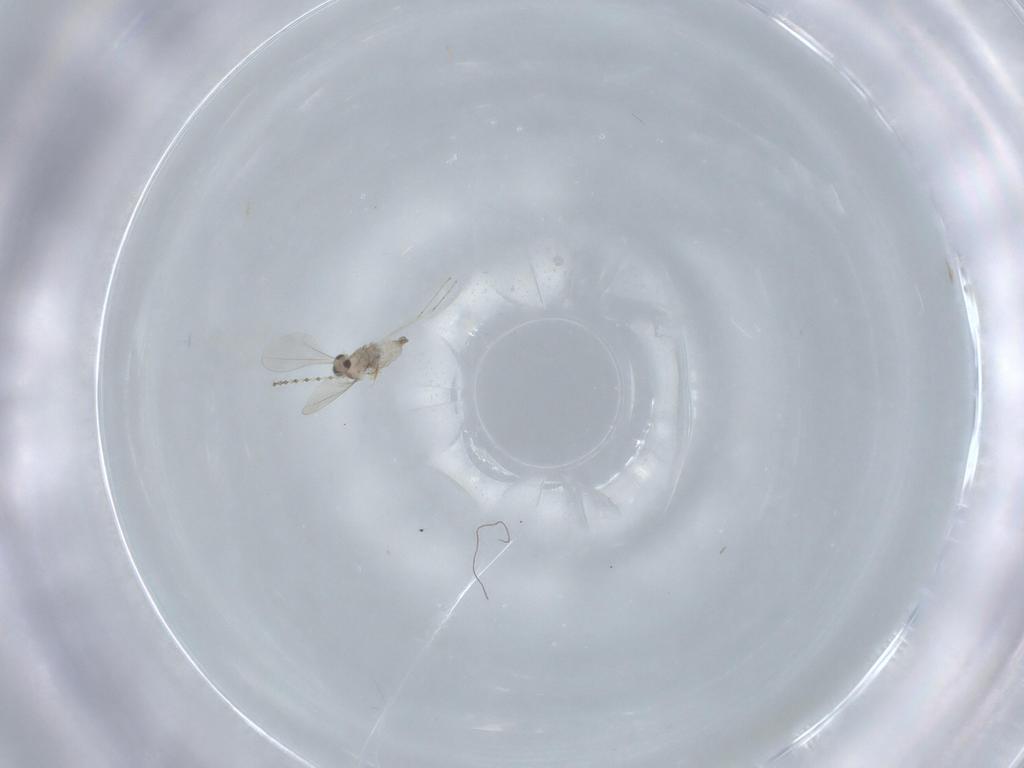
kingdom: Animalia
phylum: Arthropoda
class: Insecta
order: Diptera
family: Cecidomyiidae
